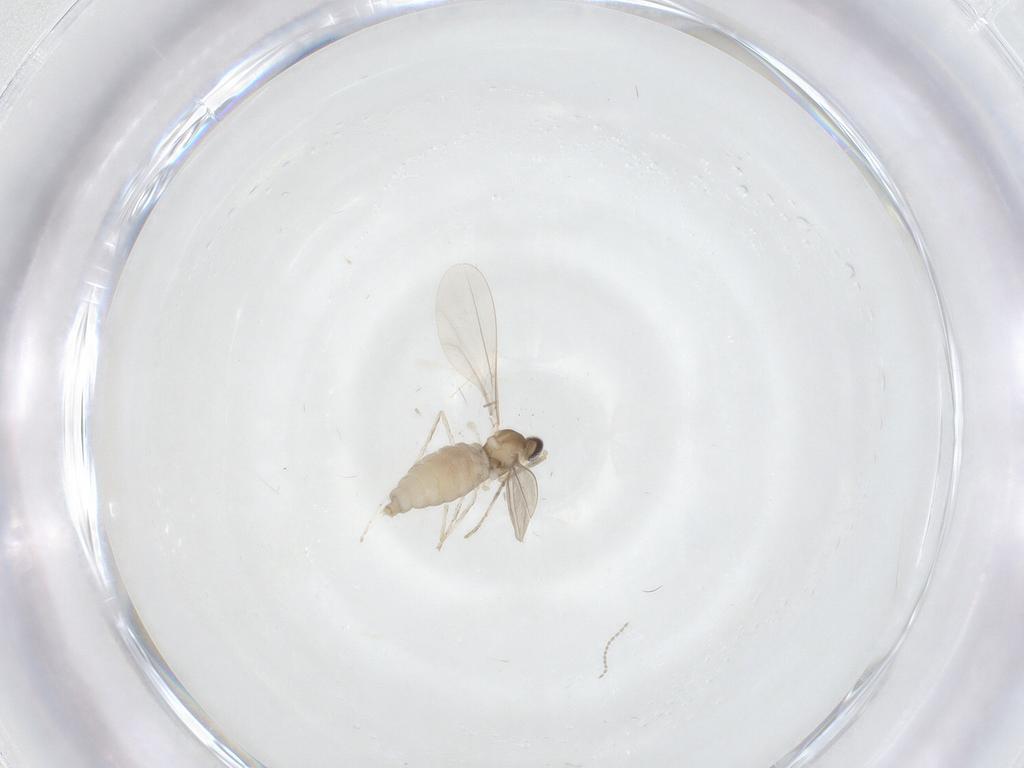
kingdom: Animalia
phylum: Arthropoda
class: Insecta
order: Diptera
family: Cecidomyiidae
